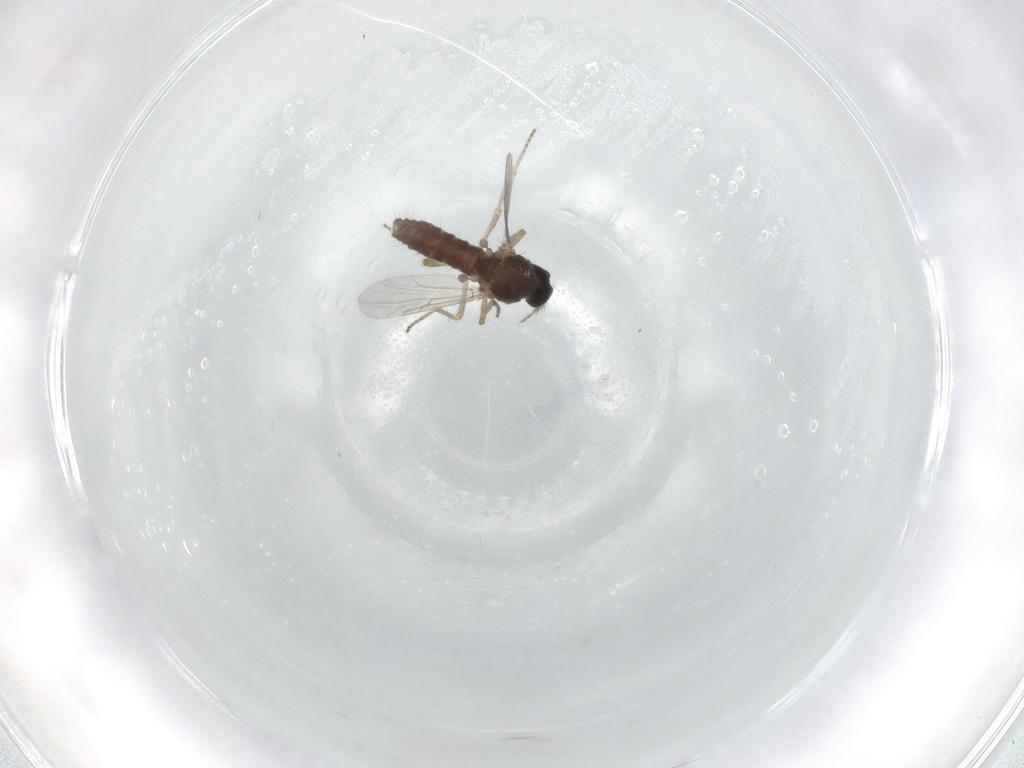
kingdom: Animalia
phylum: Arthropoda
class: Insecta
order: Diptera
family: Ceratopogonidae
